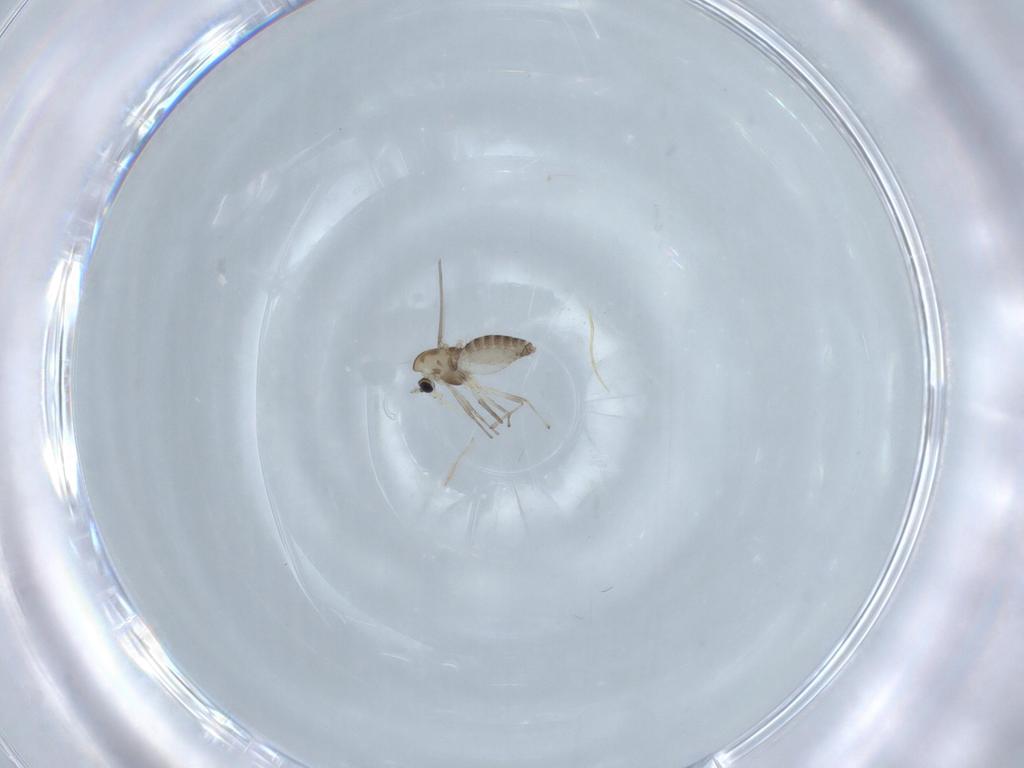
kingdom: Animalia
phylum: Arthropoda
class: Insecta
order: Diptera
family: Chironomidae
